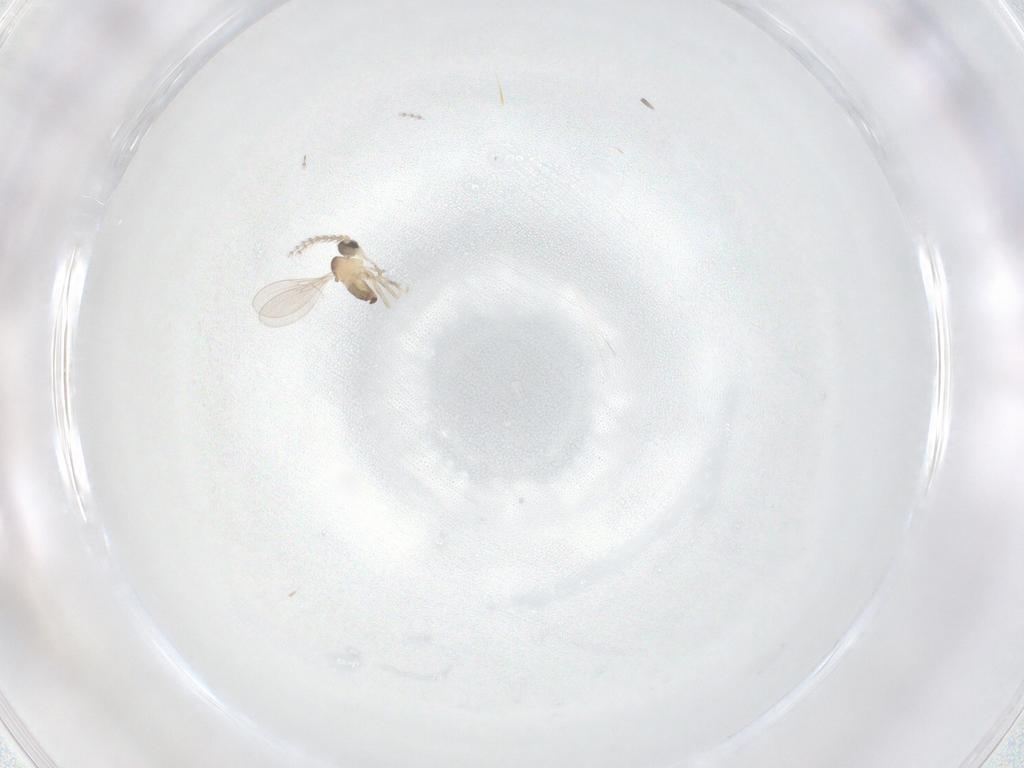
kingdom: Animalia
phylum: Arthropoda
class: Insecta
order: Diptera
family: Cecidomyiidae
